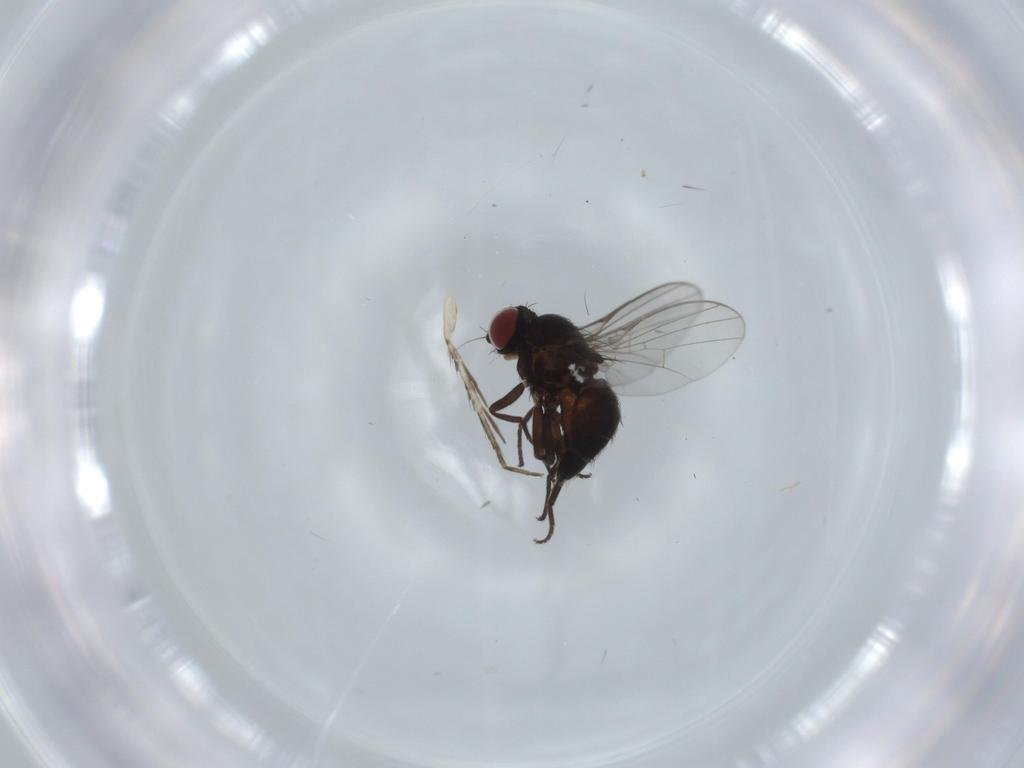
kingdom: Animalia
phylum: Arthropoda
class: Insecta
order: Diptera
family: Agromyzidae
